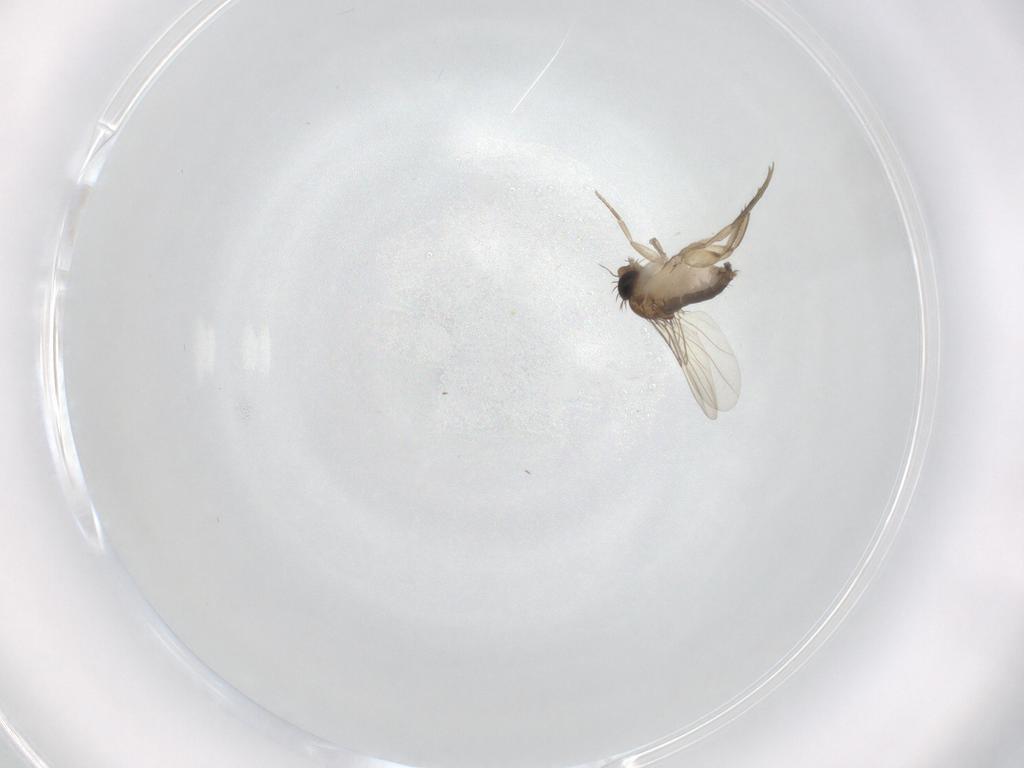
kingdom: Animalia
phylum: Arthropoda
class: Insecta
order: Diptera
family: Phoridae
